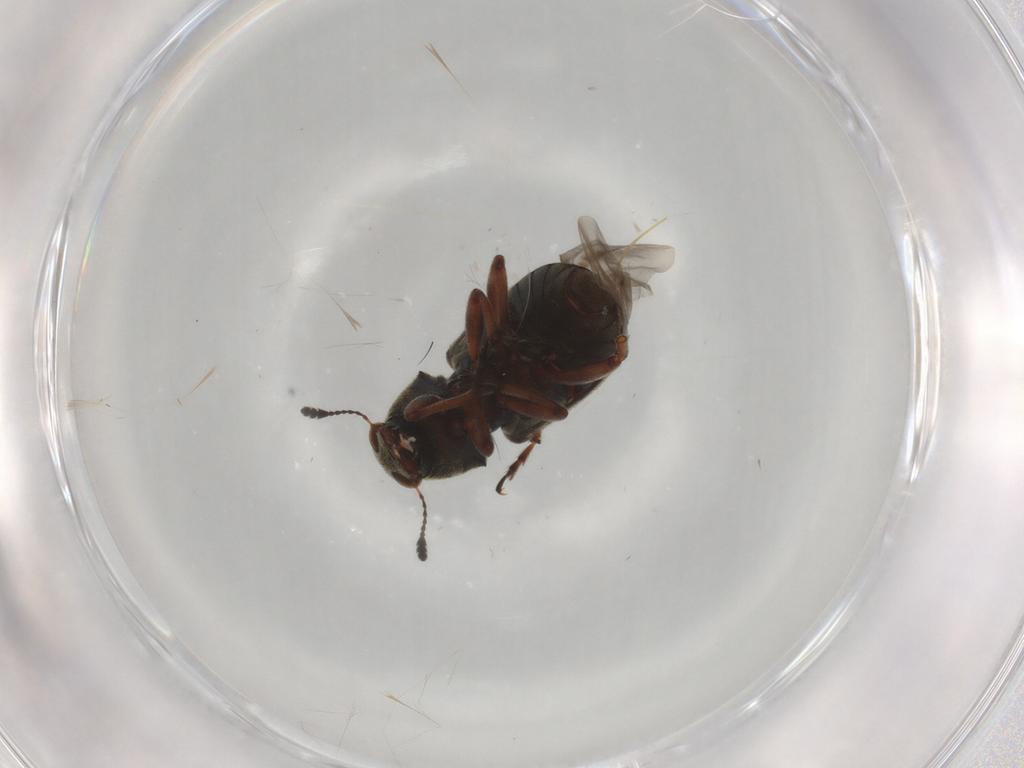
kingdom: Animalia
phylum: Arthropoda
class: Insecta
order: Coleoptera
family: Anthribidae
